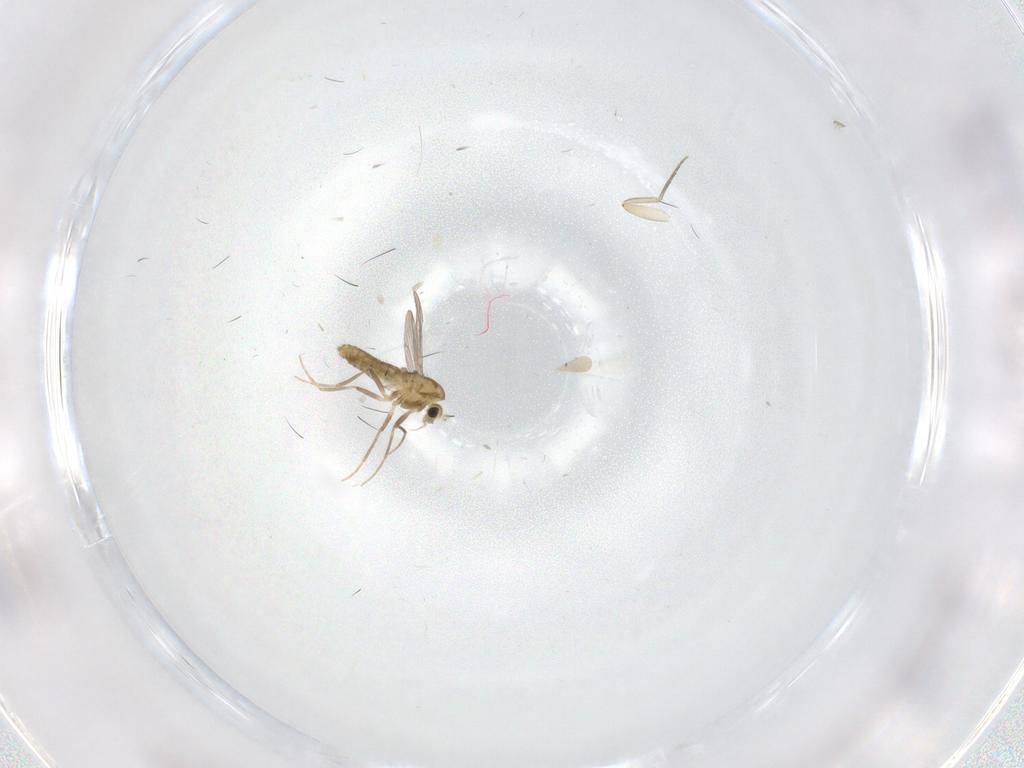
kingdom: Animalia
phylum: Arthropoda
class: Insecta
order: Diptera
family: Chironomidae
